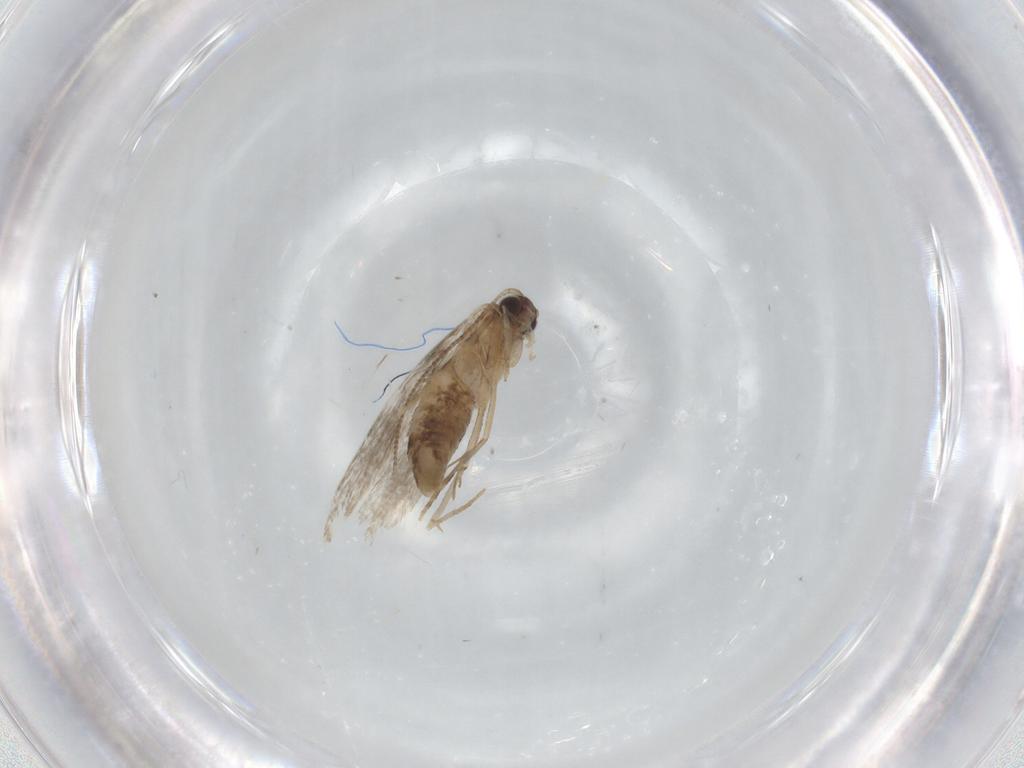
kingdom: Animalia
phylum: Arthropoda
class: Insecta
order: Lepidoptera
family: Tineidae
